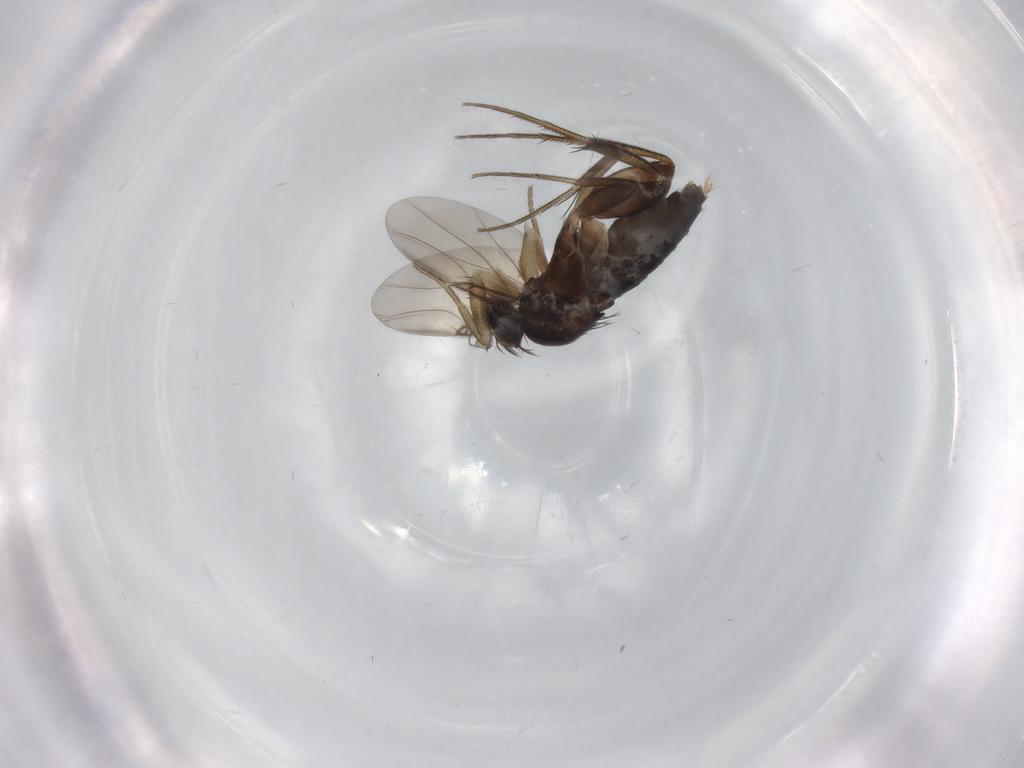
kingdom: Animalia
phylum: Arthropoda
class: Insecta
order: Diptera
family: Phoridae
